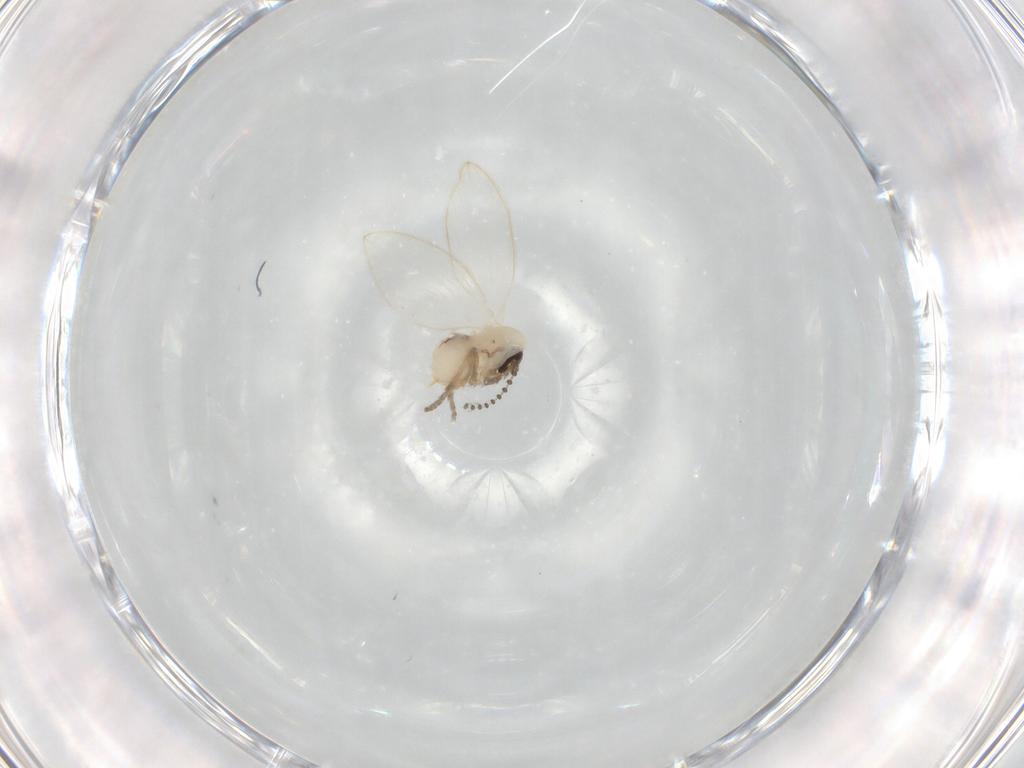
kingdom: Animalia
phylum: Arthropoda
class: Insecta
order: Diptera
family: Psychodidae
